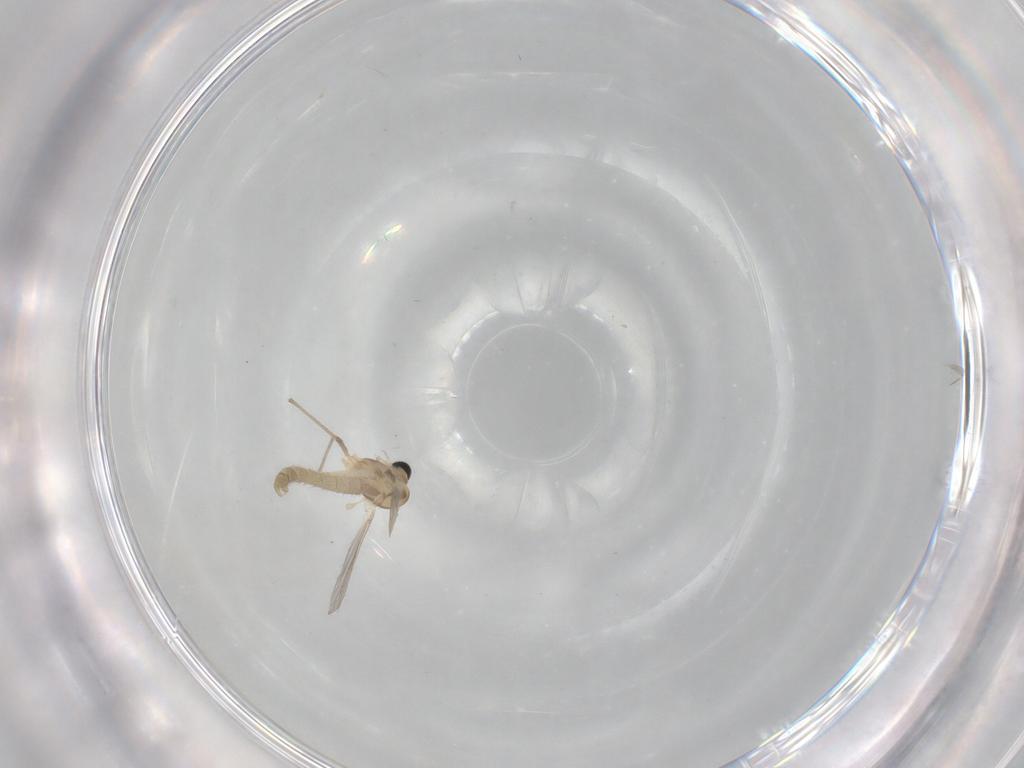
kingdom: Animalia
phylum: Arthropoda
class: Insecta
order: Diptera
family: Chironomidae
